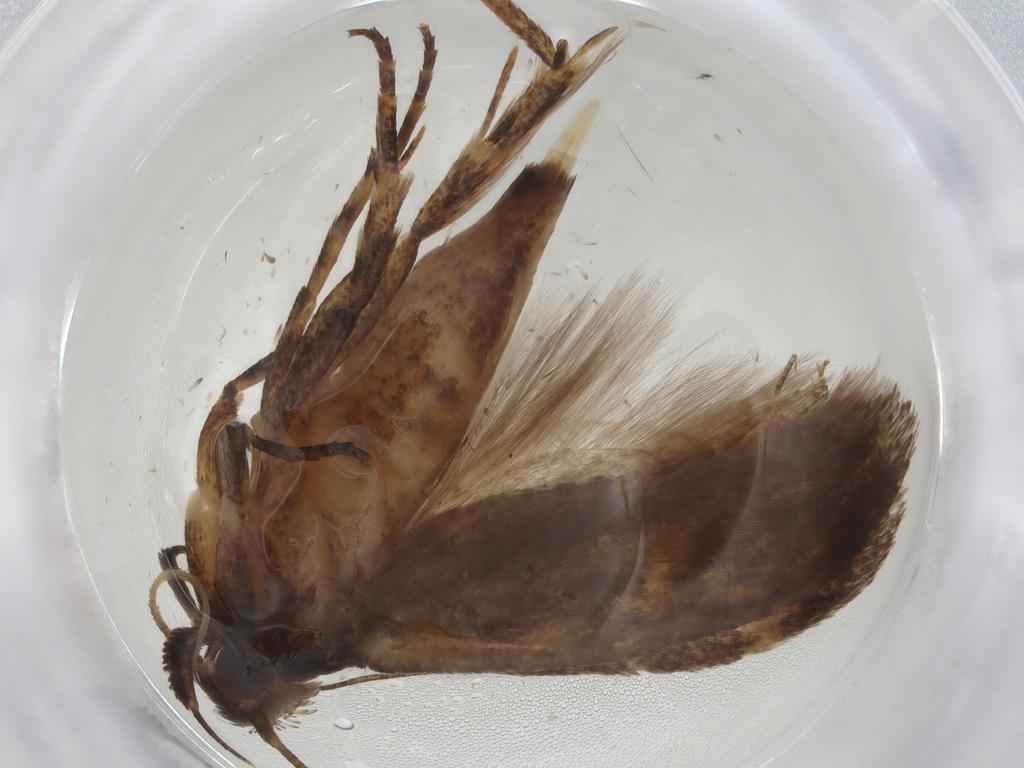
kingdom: Animalia
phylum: Arthropoda
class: Insecta
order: Lepidoptera
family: Gelechiidae
